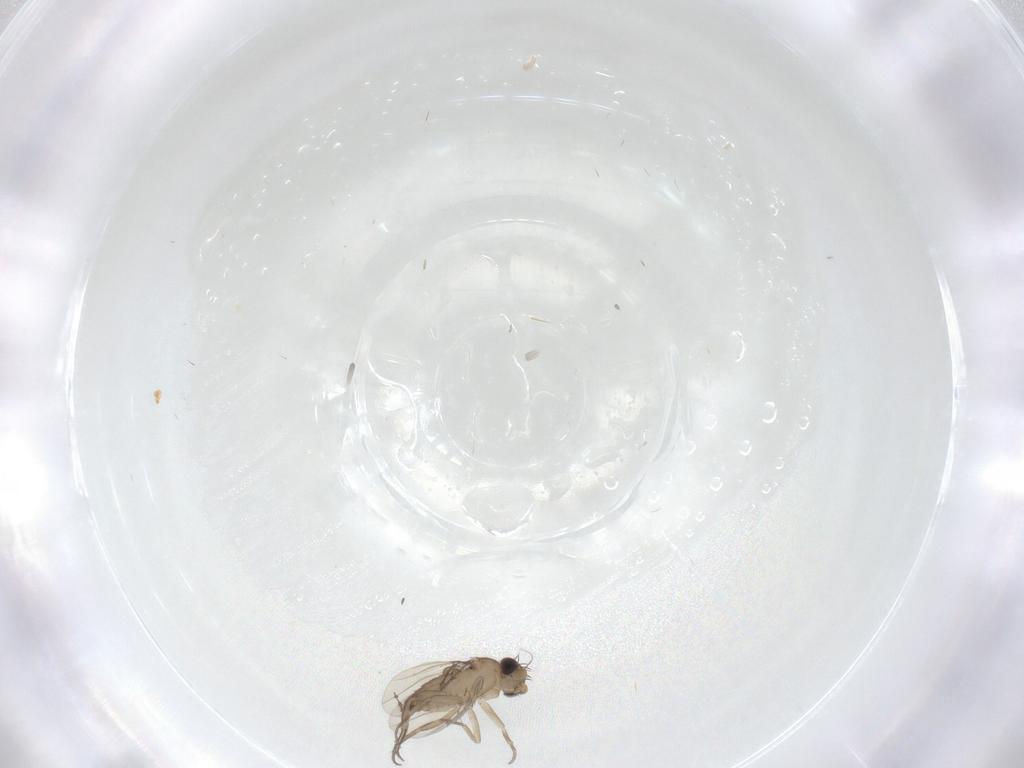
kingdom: Animalia
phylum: Arthropoda
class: Insecta
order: Diptera
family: Phoridae
